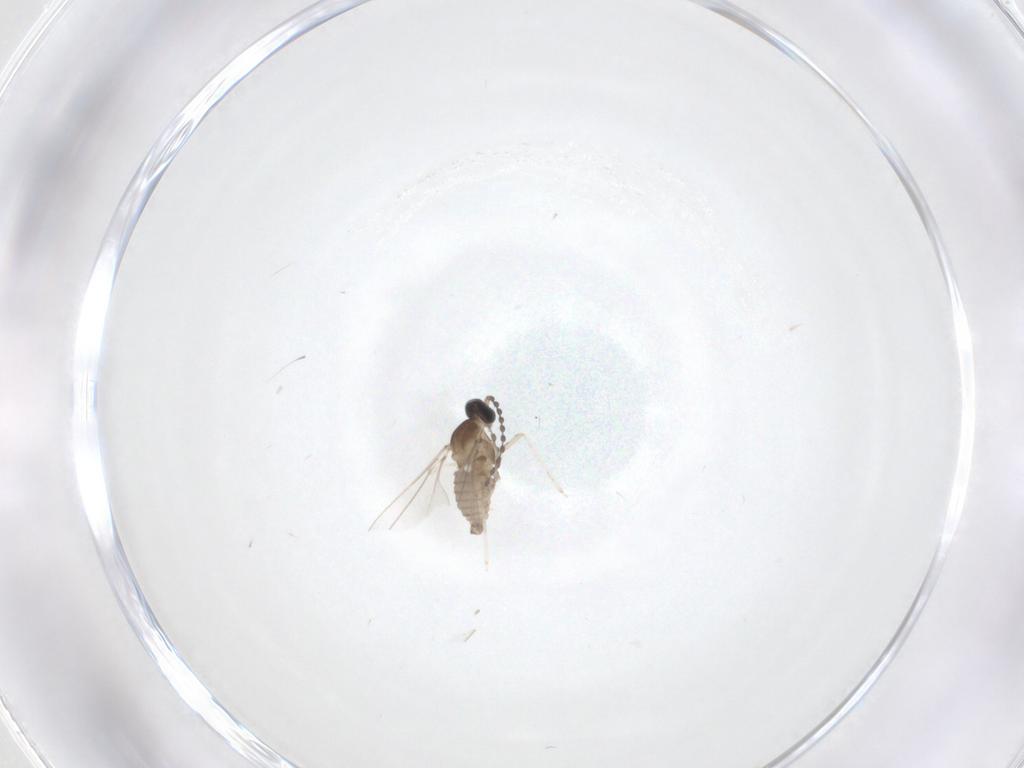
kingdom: Animalia
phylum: Arthropoda
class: Insecta
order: Diptera
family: Cecidomyiidae
